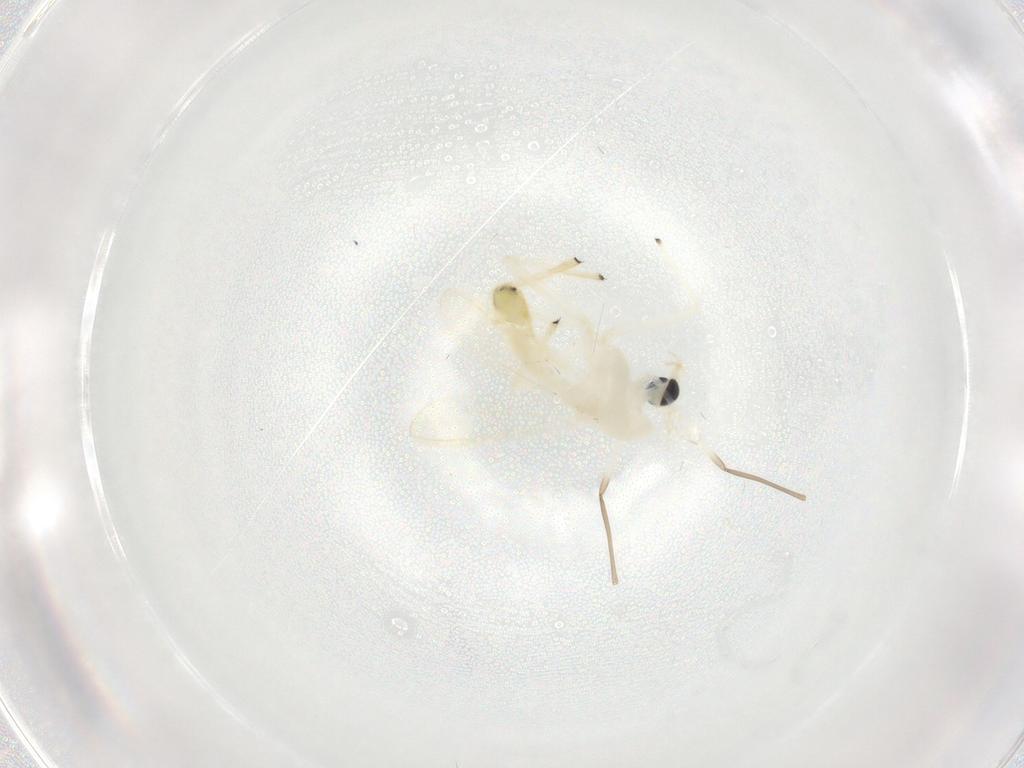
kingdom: Animalia
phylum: Arthropoda
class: Insecta
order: Diptera
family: Chironomidae
